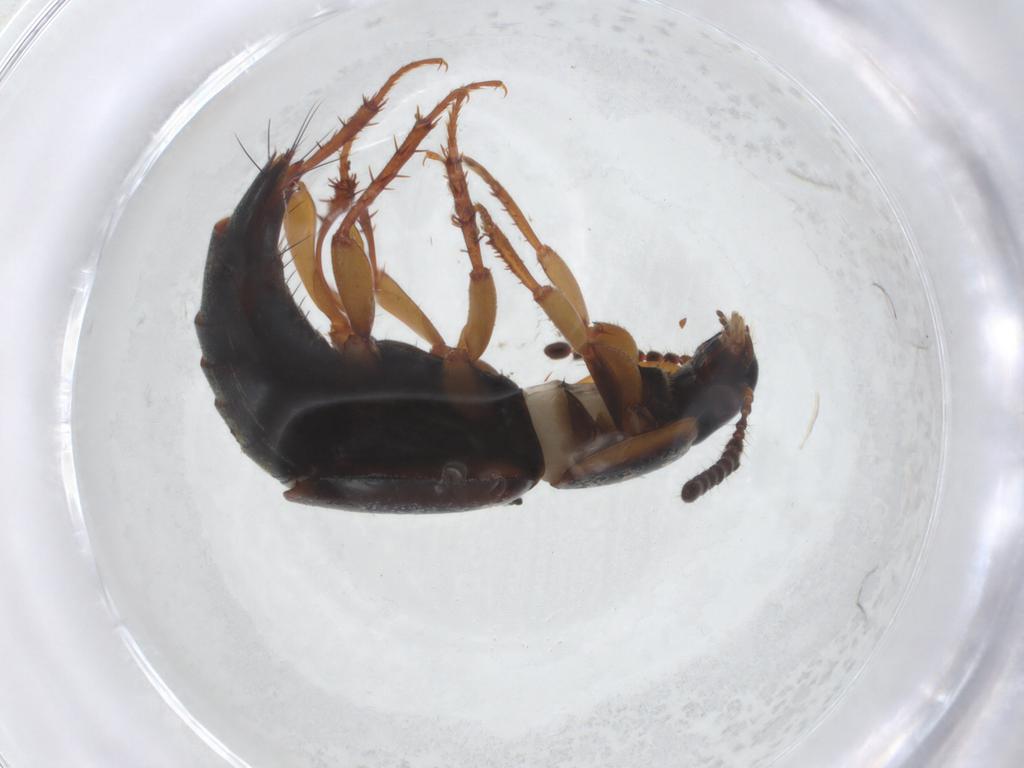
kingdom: Animalia
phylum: Arthropoda
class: Insecta
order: Coleoptera
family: Staphylinidae
